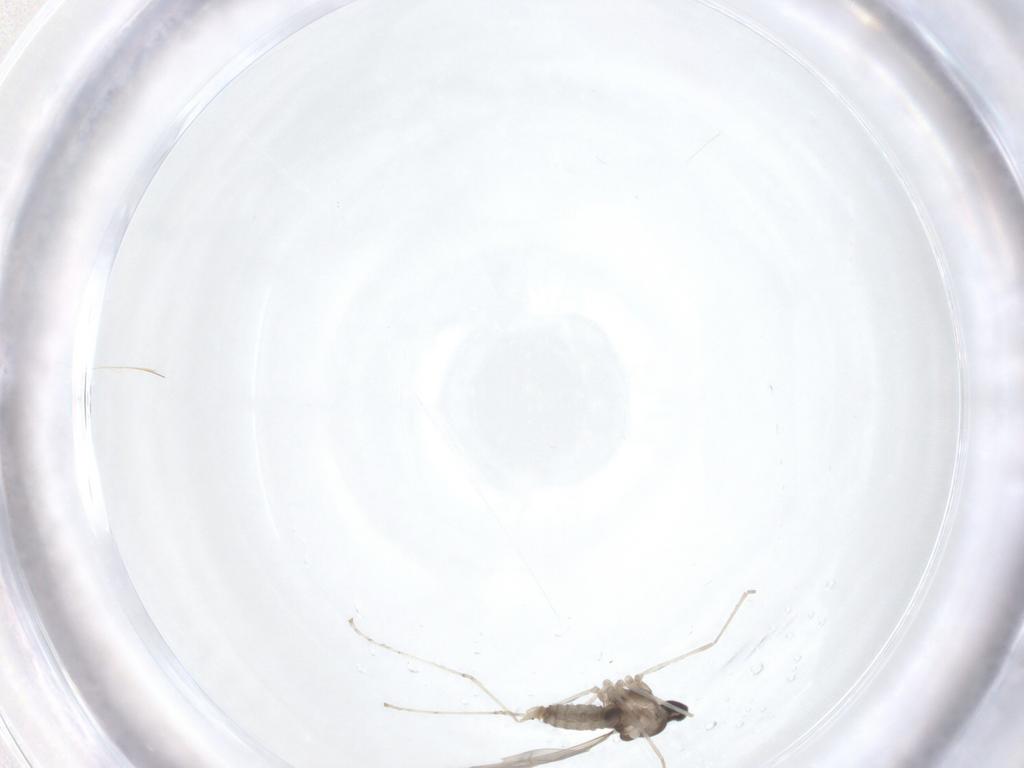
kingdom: Animalia
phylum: Arthropoda
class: Insecta
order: Diptera
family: Cecidomyiidae
